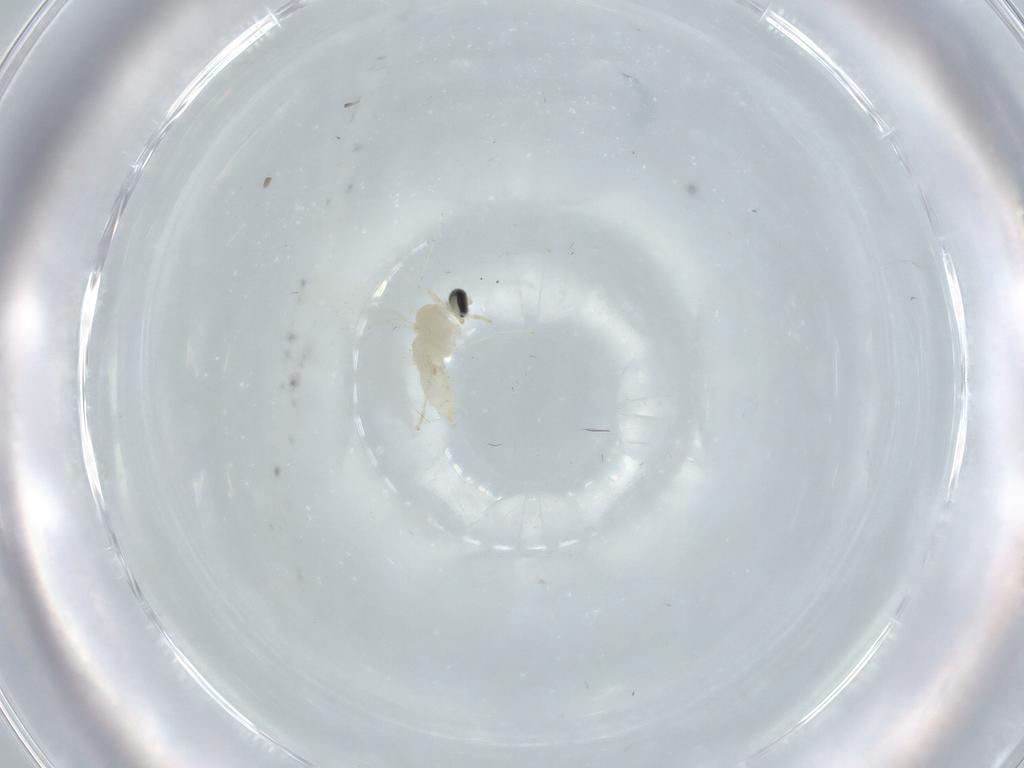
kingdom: Animalia
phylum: Arthropoda
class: Insecta
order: Diptera
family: Cecidomyiidae
